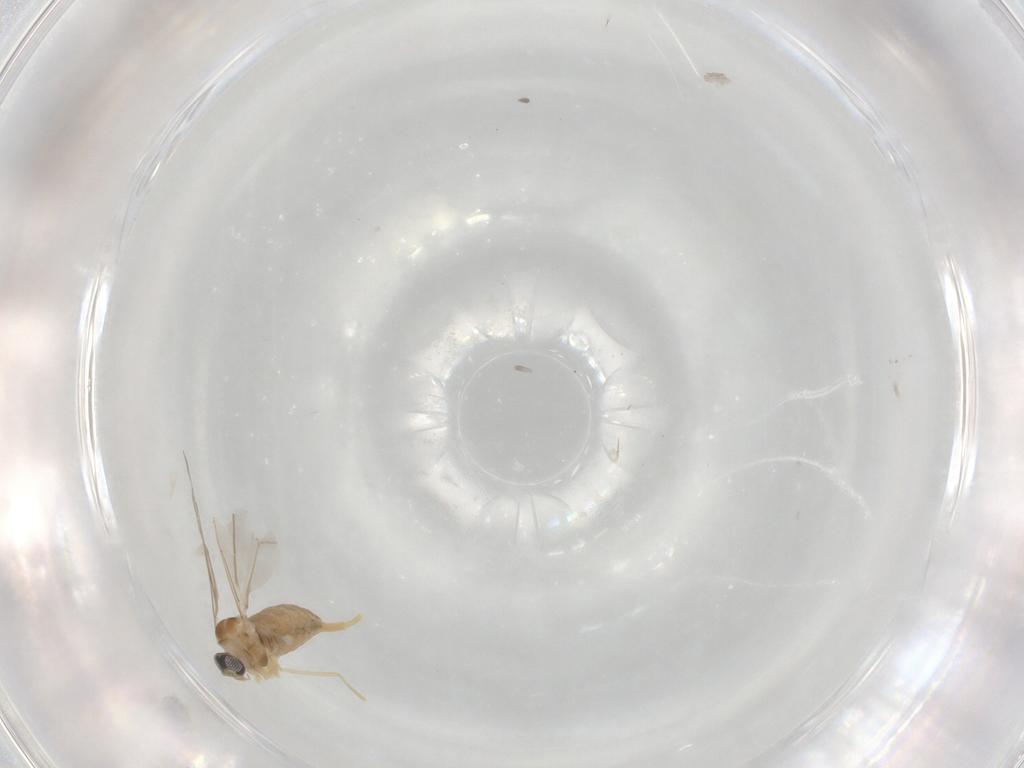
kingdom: Animalia
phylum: Arthropoda
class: Insecta
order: Diptera
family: Cecidomyiidae
